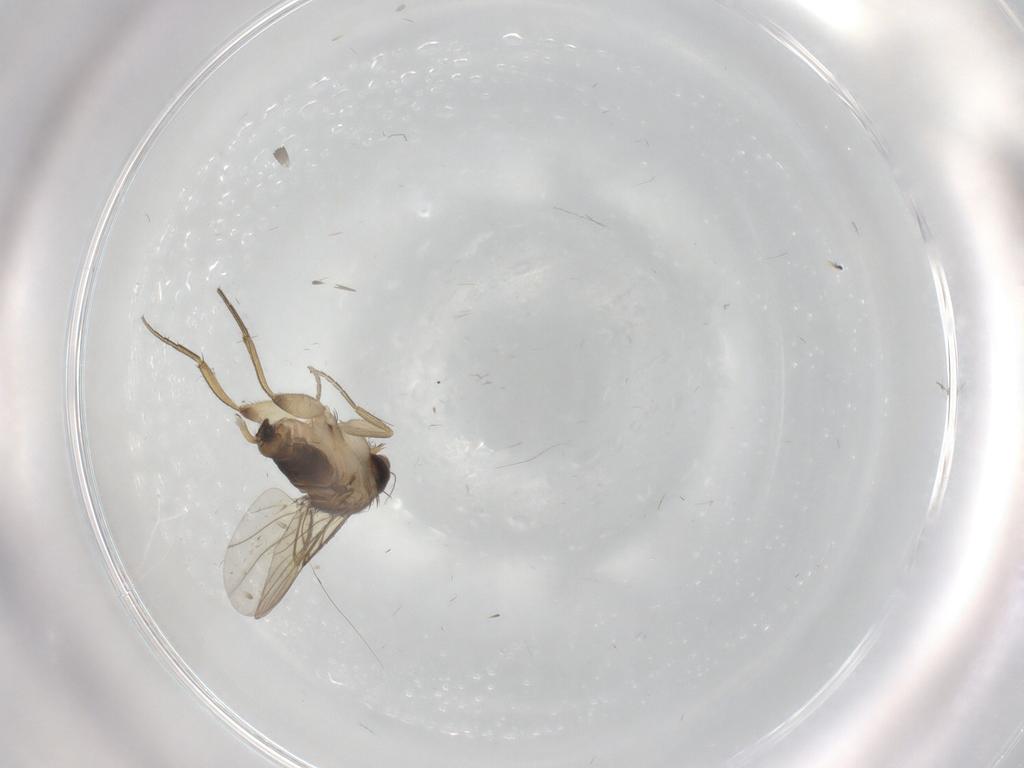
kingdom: Animalia
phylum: Arthropoda
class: Insecta
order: Diptera
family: Phoridae
